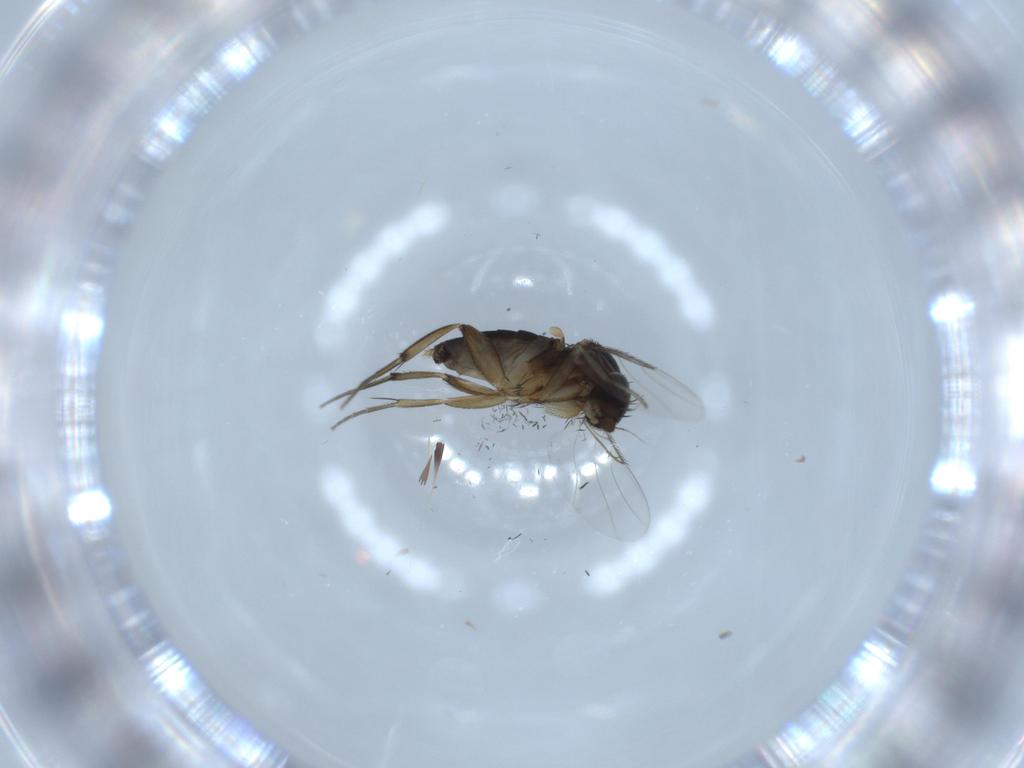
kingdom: Animalia
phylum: Arthropoda
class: Insecta
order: Diptera
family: Phoridae
